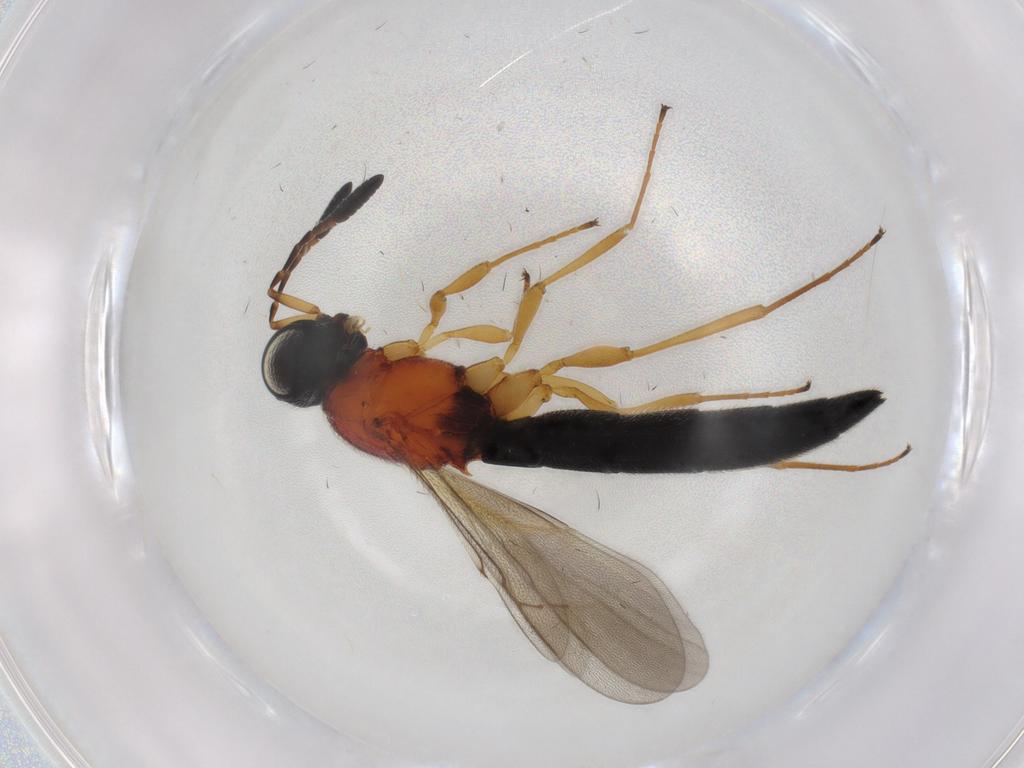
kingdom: Animalia
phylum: Arthropoda
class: Insecta
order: Hymenoptera
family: Scelionidae
